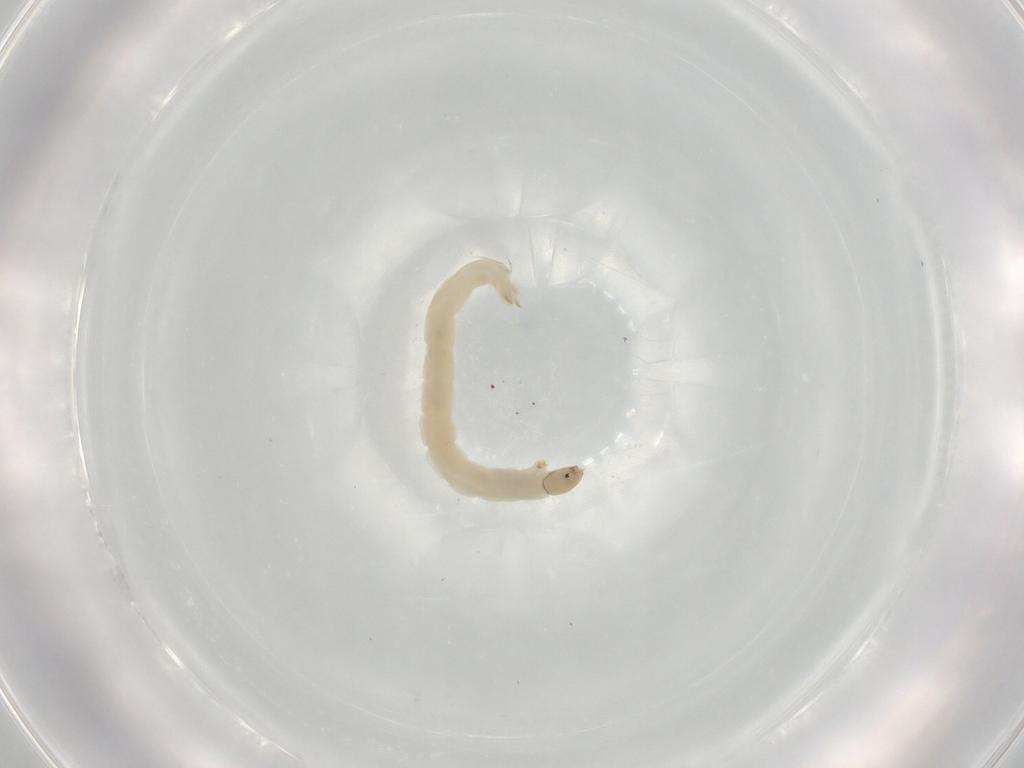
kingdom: Animalia
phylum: Arthropoda
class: Insecta
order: Diptera
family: Chironomidae
